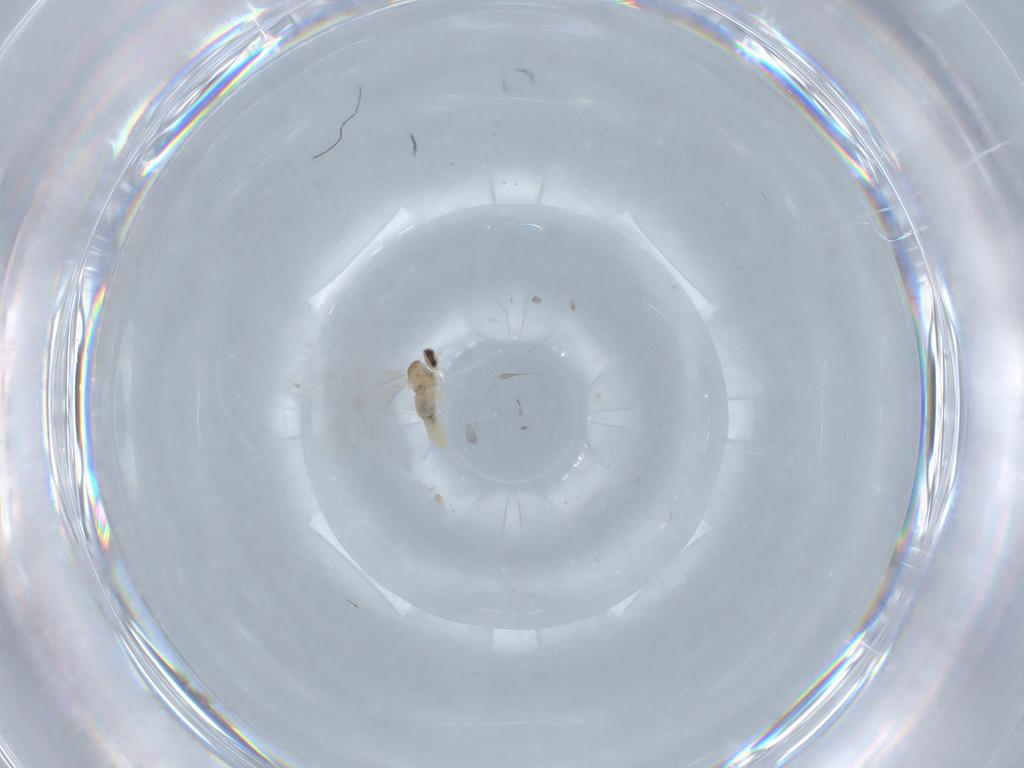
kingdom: Animalia
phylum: Arthropoda
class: Insecta
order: Diptera
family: Cecidomyiidae
